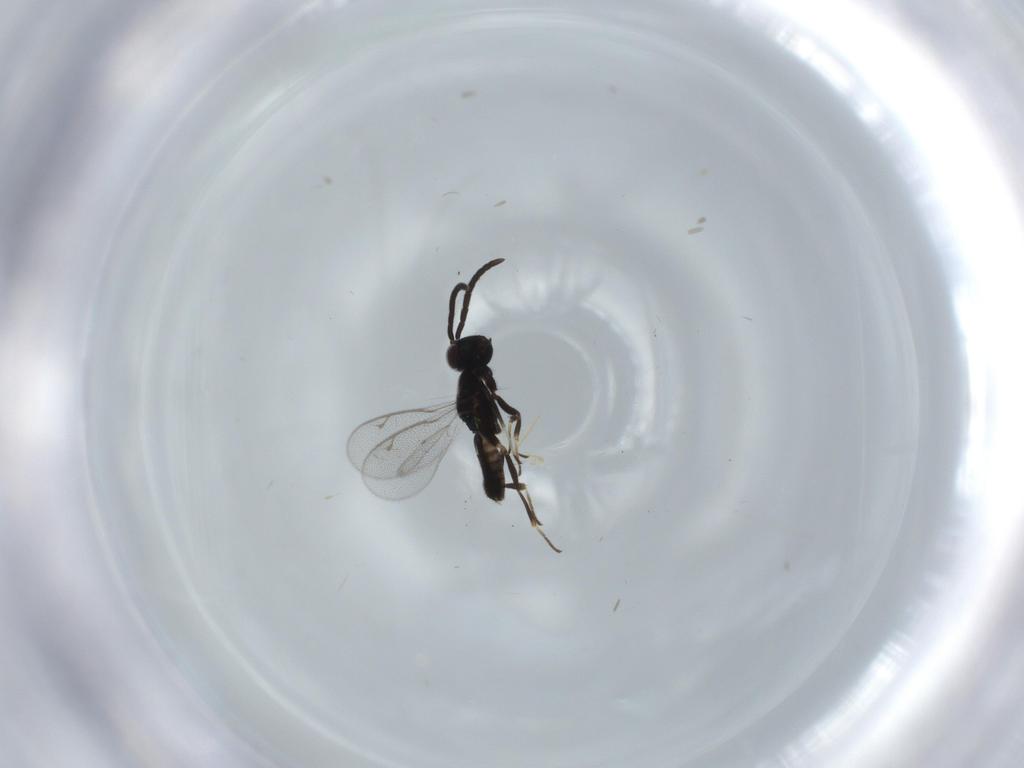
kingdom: Animalia
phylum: Arthropoda
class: Insecta
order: Hymenoptera
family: Eupelmidae
